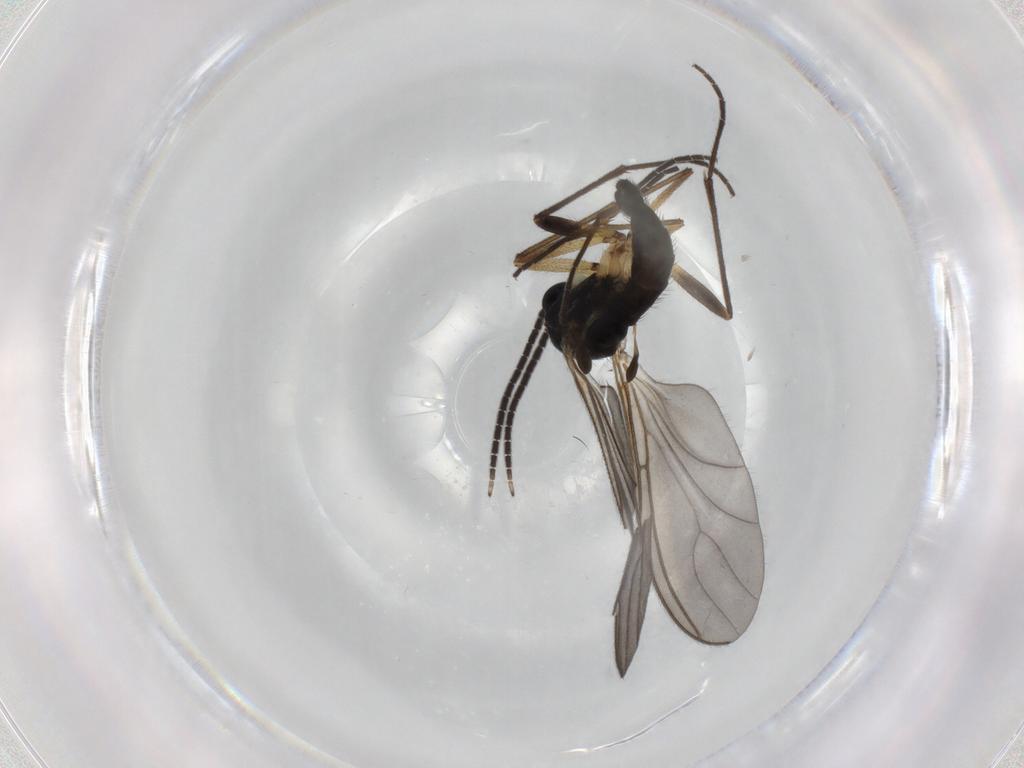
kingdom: Animalia
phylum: Arthropoda
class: Insecta
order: Diptera
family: Sciaridae
